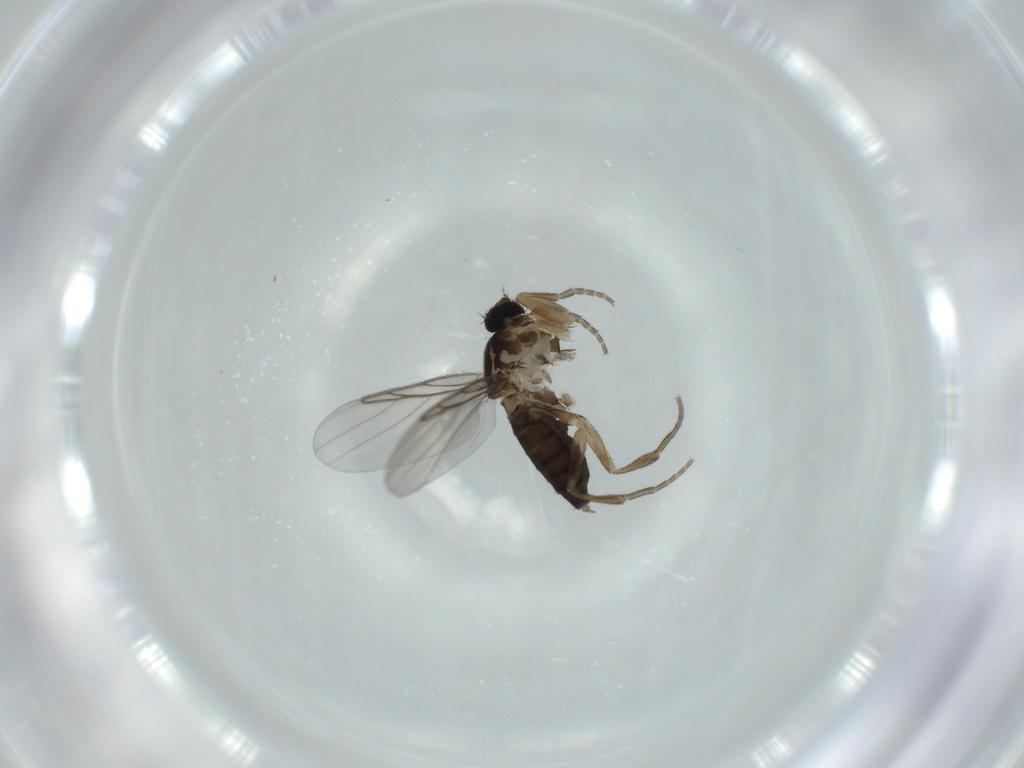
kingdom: Animalia
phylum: Arthropoda
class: Insecta
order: Diptera
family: Phoridae
